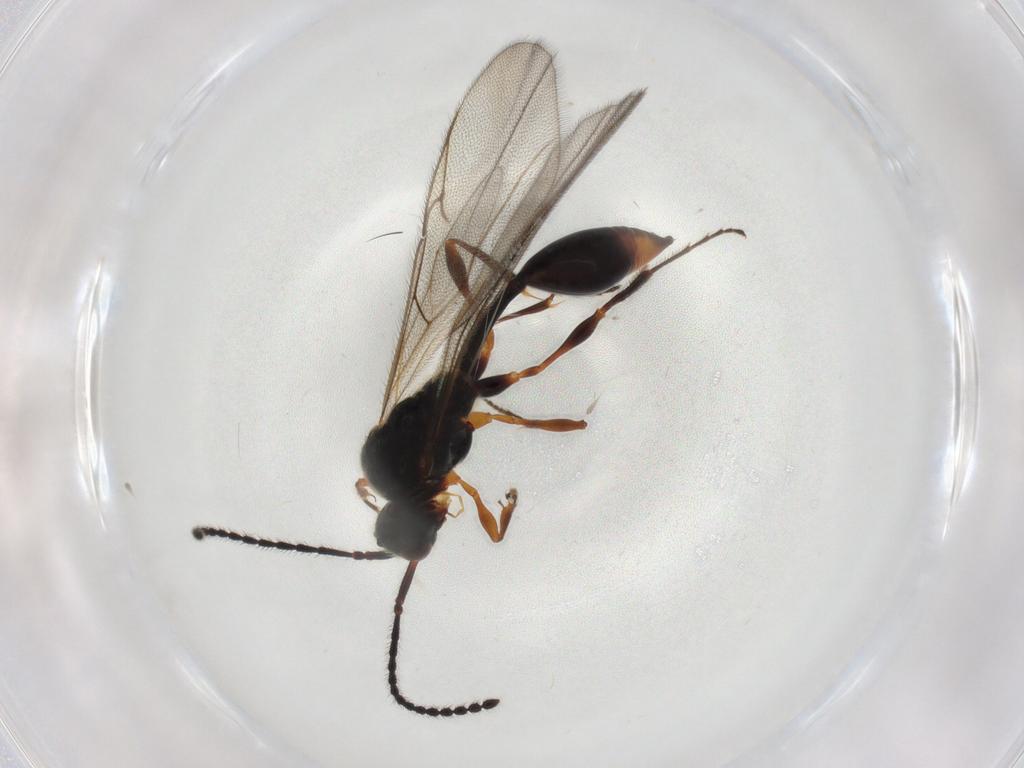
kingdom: Animalia
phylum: Arthropoda
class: Insecta
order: Hymenoptera
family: Diapriidae
